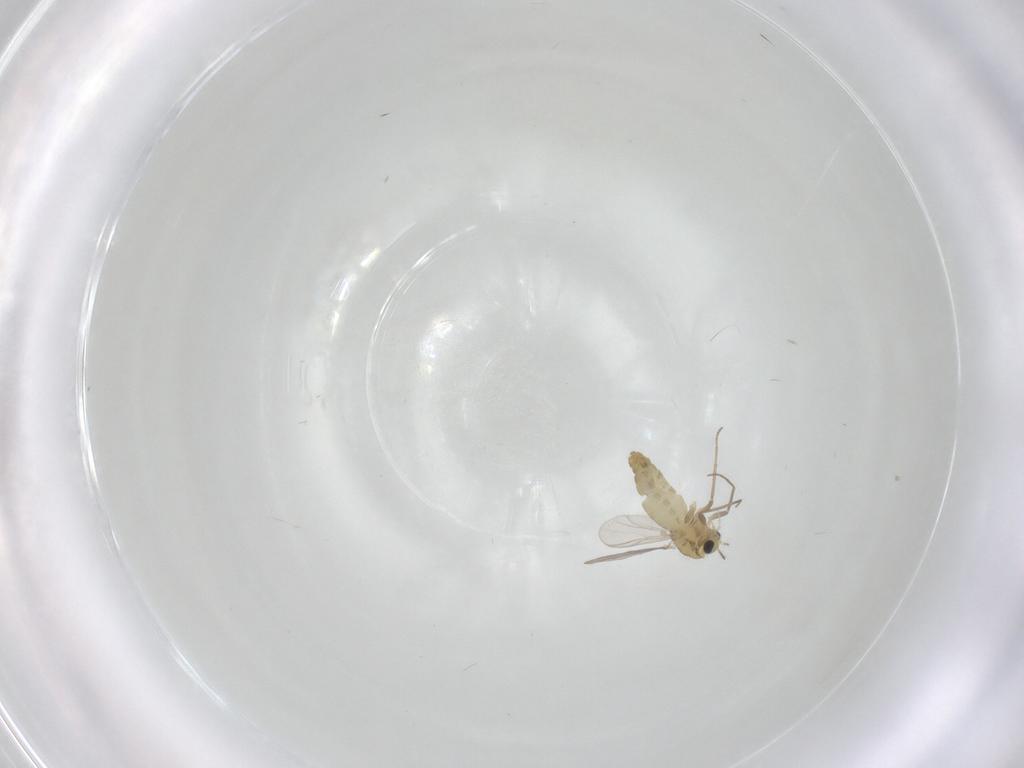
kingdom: Animalia
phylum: Arthropoda
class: Insecta
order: Diptera
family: Chironomidae
